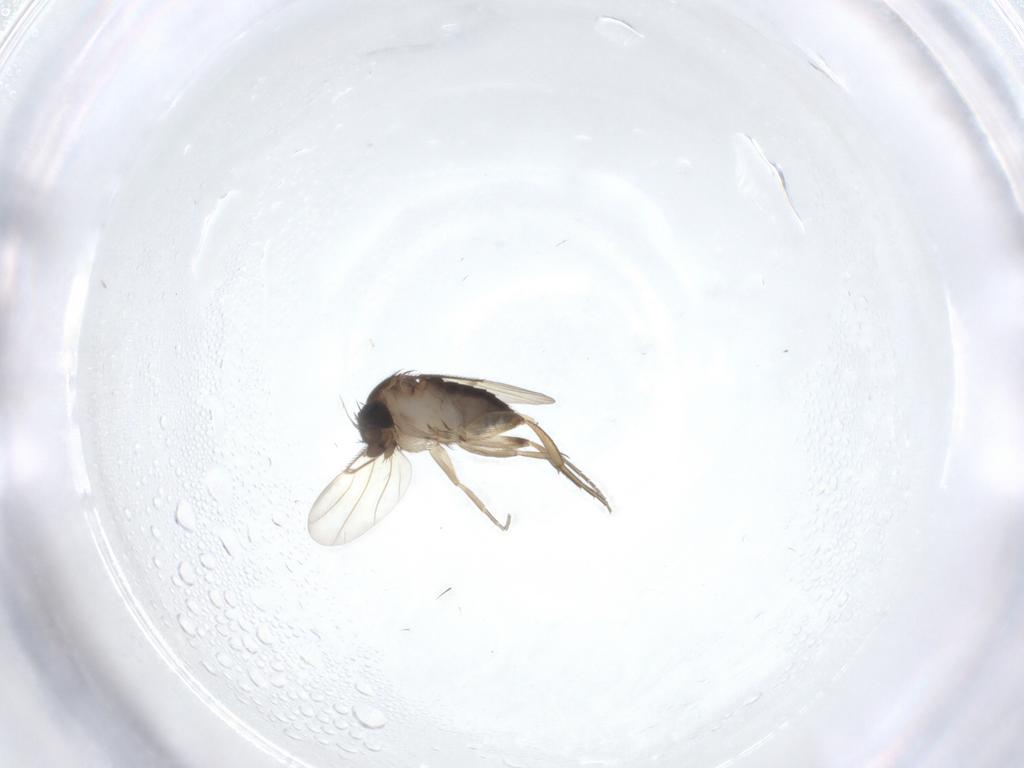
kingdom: Animalia
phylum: Arthropoda
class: Insecta
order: Diptera
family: Phoridae
